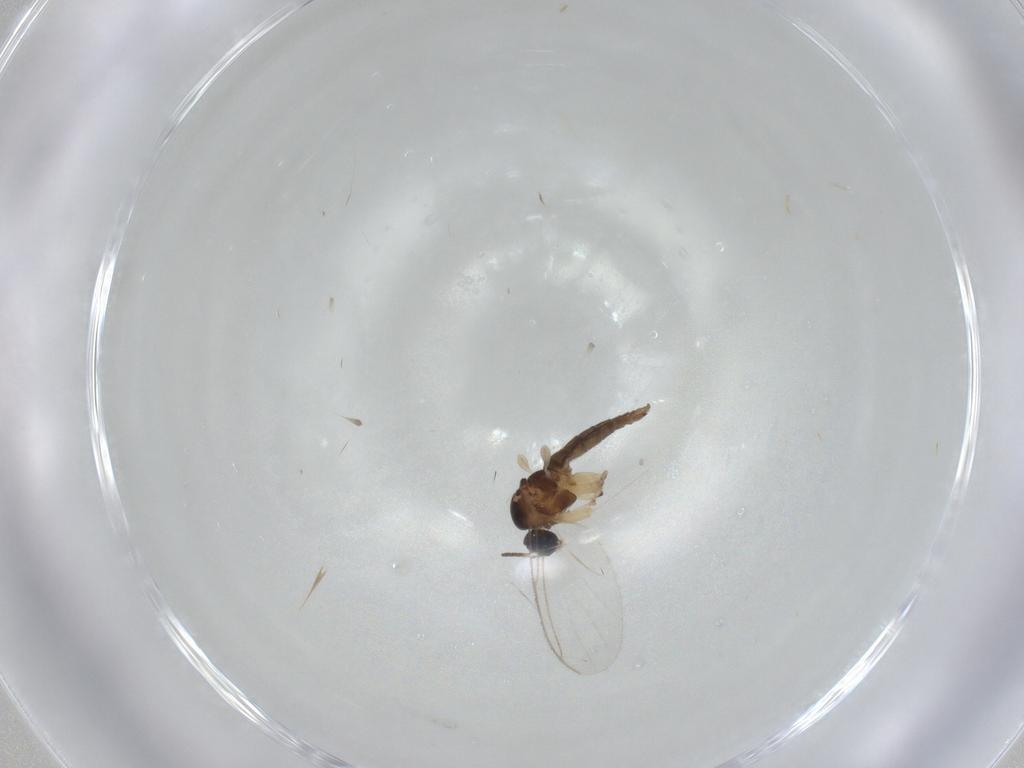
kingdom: Animalia
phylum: Arthropoda
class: Insecta
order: Diptera
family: Sciaridae
